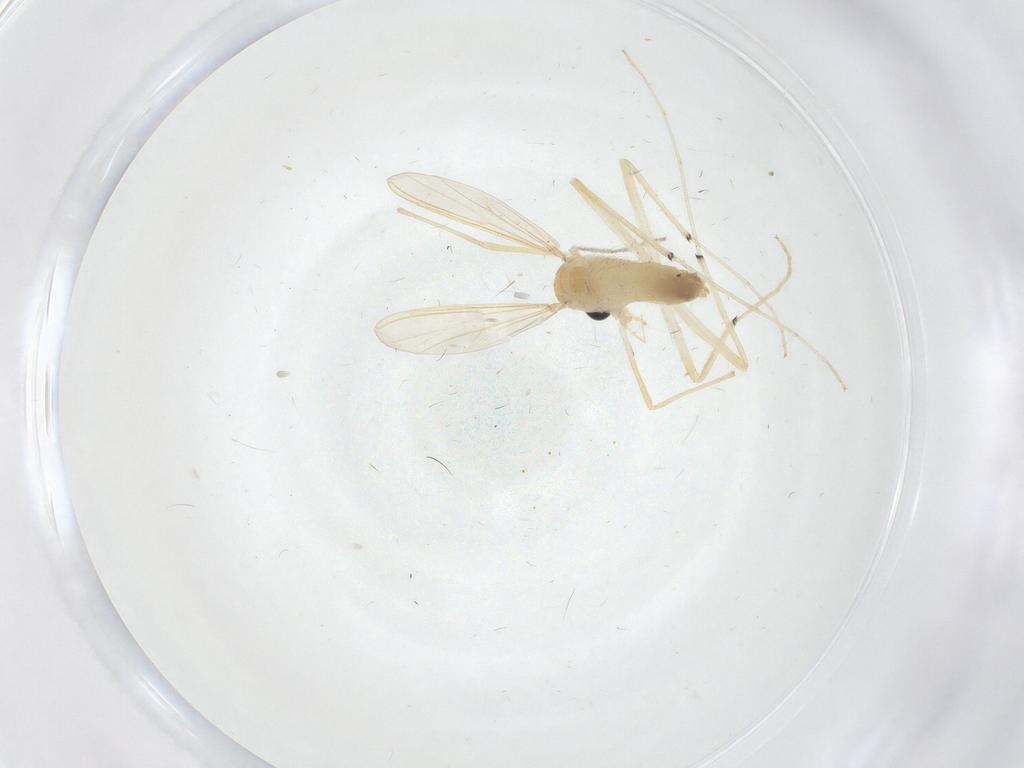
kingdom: Animalia
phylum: Arthropoda
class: Insecta
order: Diptera
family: Chironomidae
